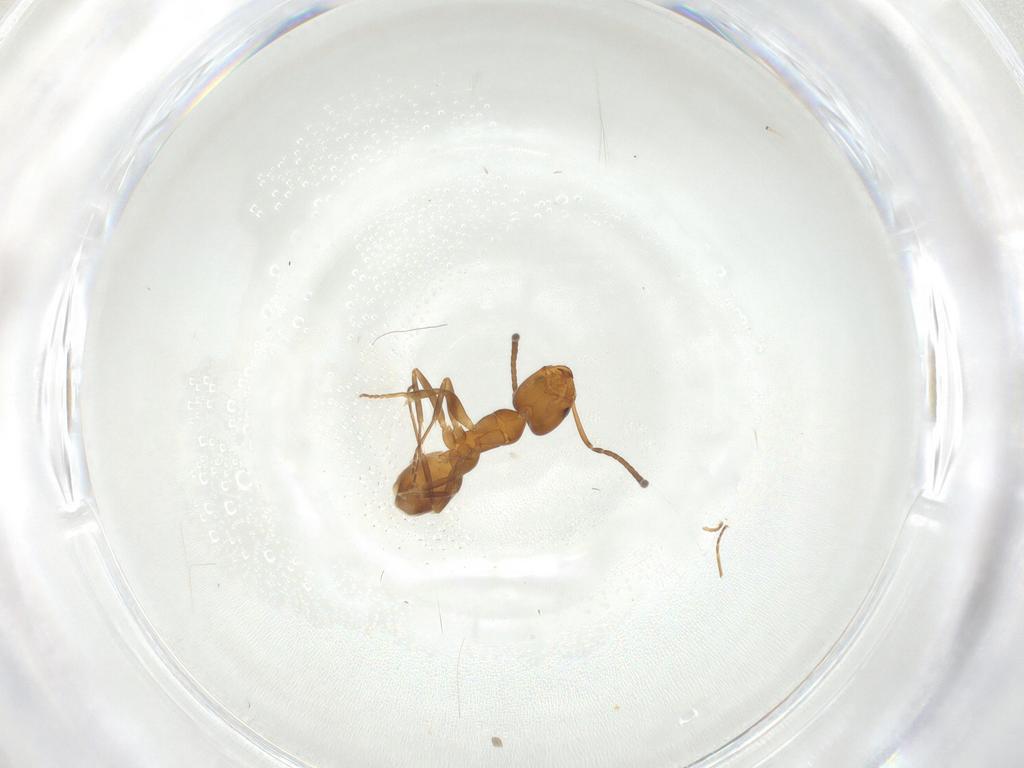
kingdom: Animalia
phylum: Arthropoda
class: Insecta
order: Hymenoptera
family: Formicidae
